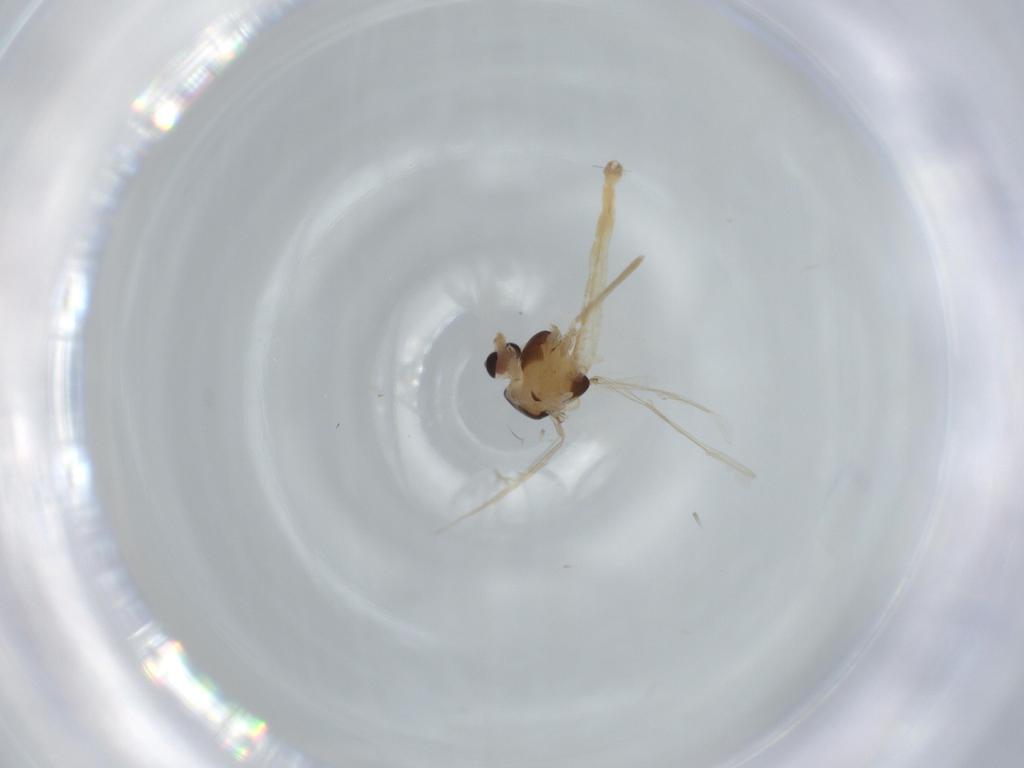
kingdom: Animalia
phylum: Arthropoda
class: Insecta
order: Diptera
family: Chironomidae
